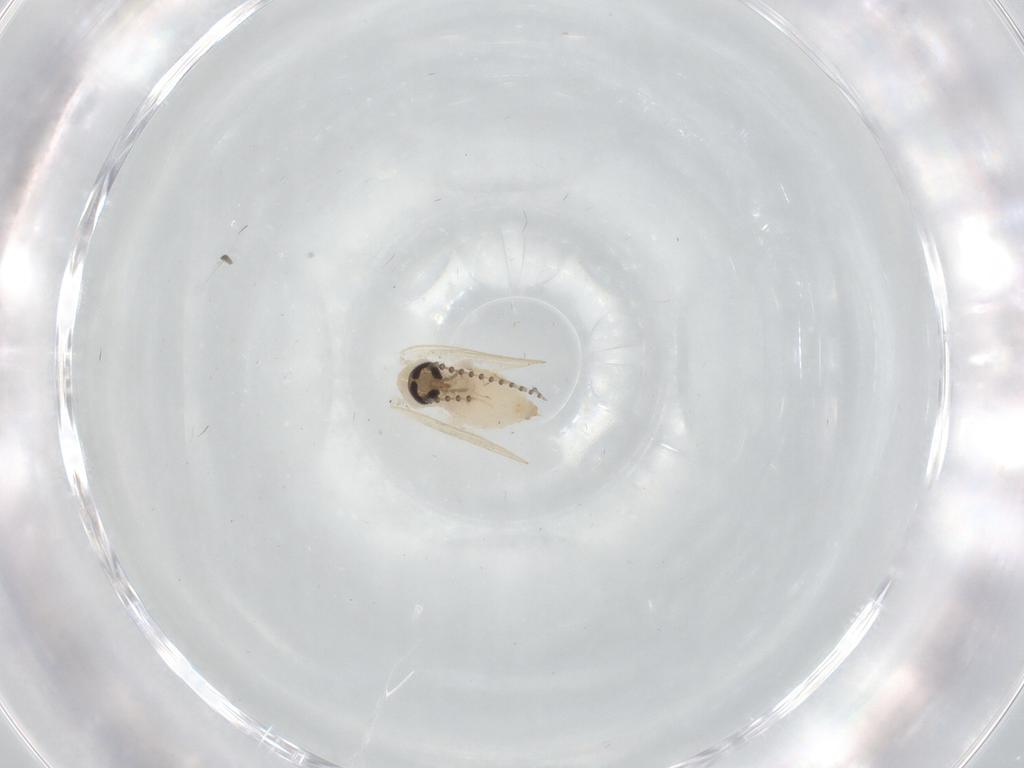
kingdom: Animalia
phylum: Arthropoda
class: Insecta
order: Diptera
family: Psychodidae
